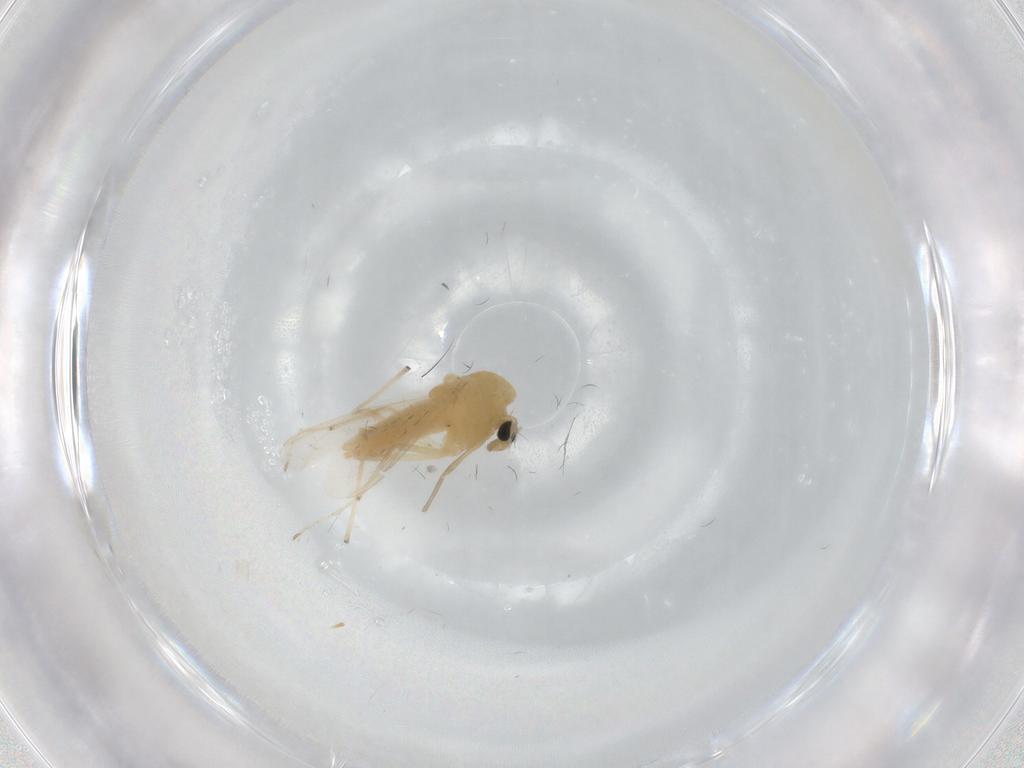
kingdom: Animalia
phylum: Arthropoda
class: Insecta
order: Diptera
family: Chironomidae
